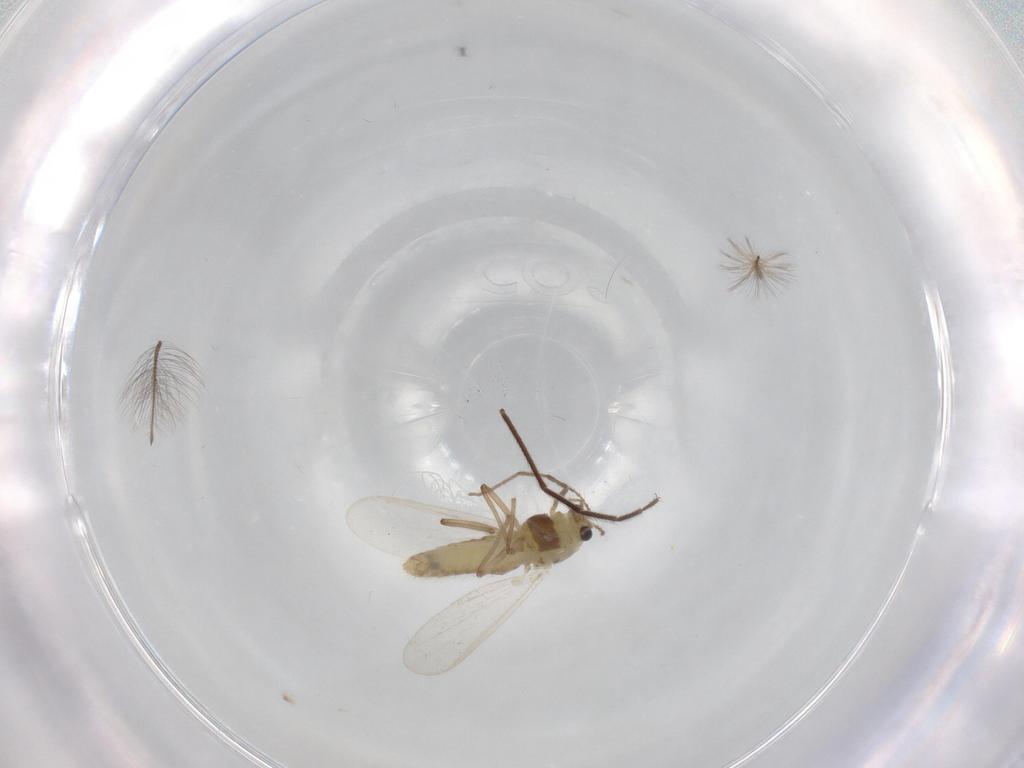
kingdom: Animalia
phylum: Arthropoda
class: Insecta
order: Diptera
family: Chironomidae
